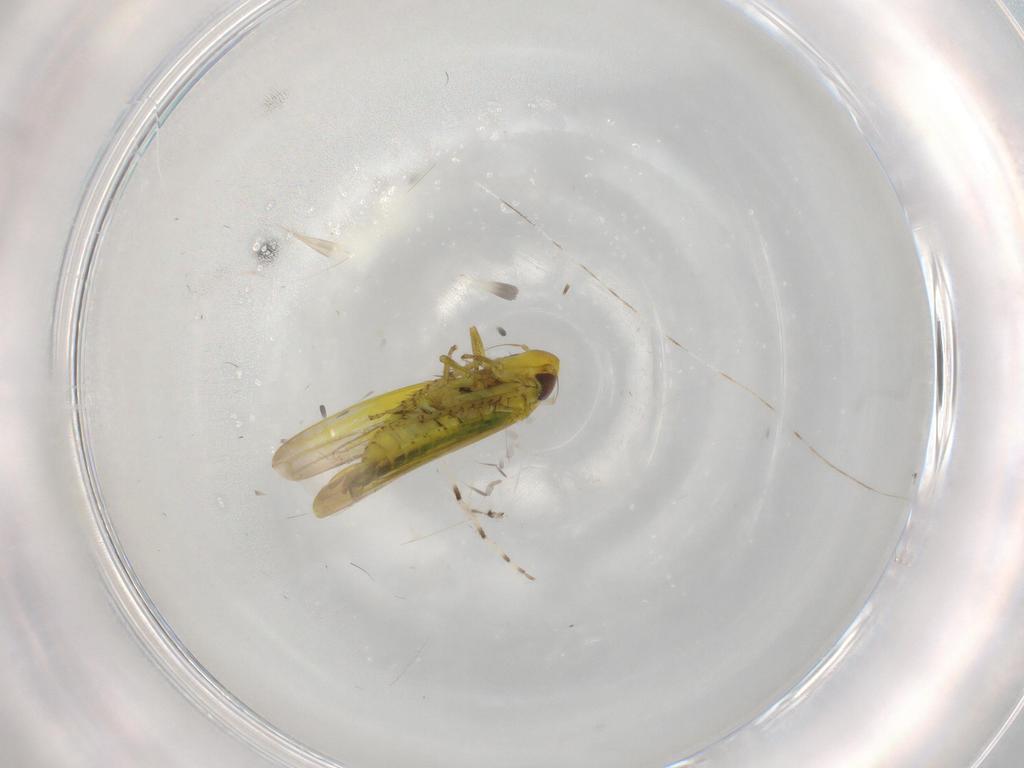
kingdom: Animalia
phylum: Arthropoda
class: Insecta
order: Hemiptera
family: Cicadellidae
